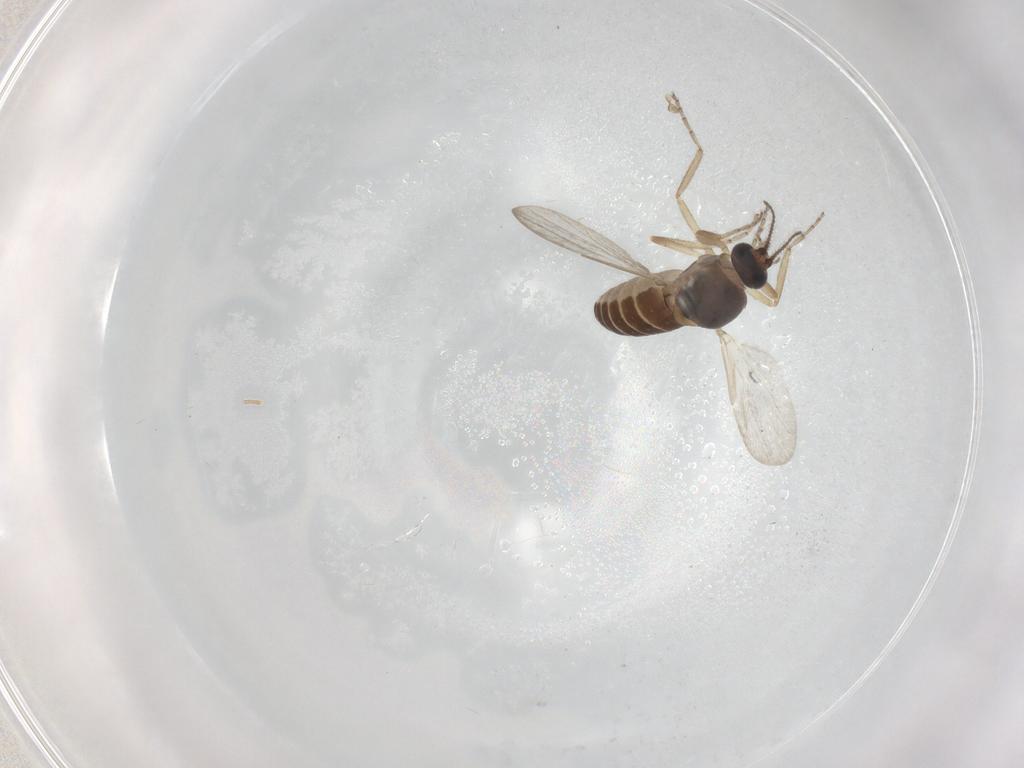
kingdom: Animalia
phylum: Arthropoda
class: Insecta
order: Diptera
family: Ceratopogonidae
